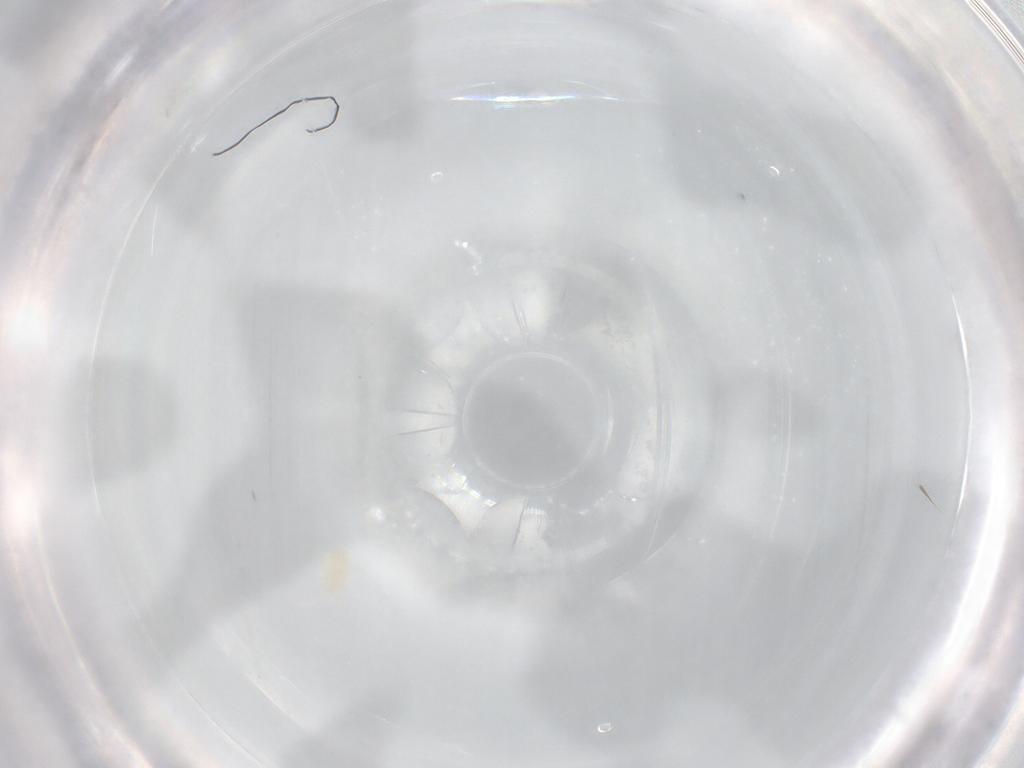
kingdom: Animalia
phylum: Arthropoda
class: Arachnida
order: Trombidiformes
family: Eupodidae
